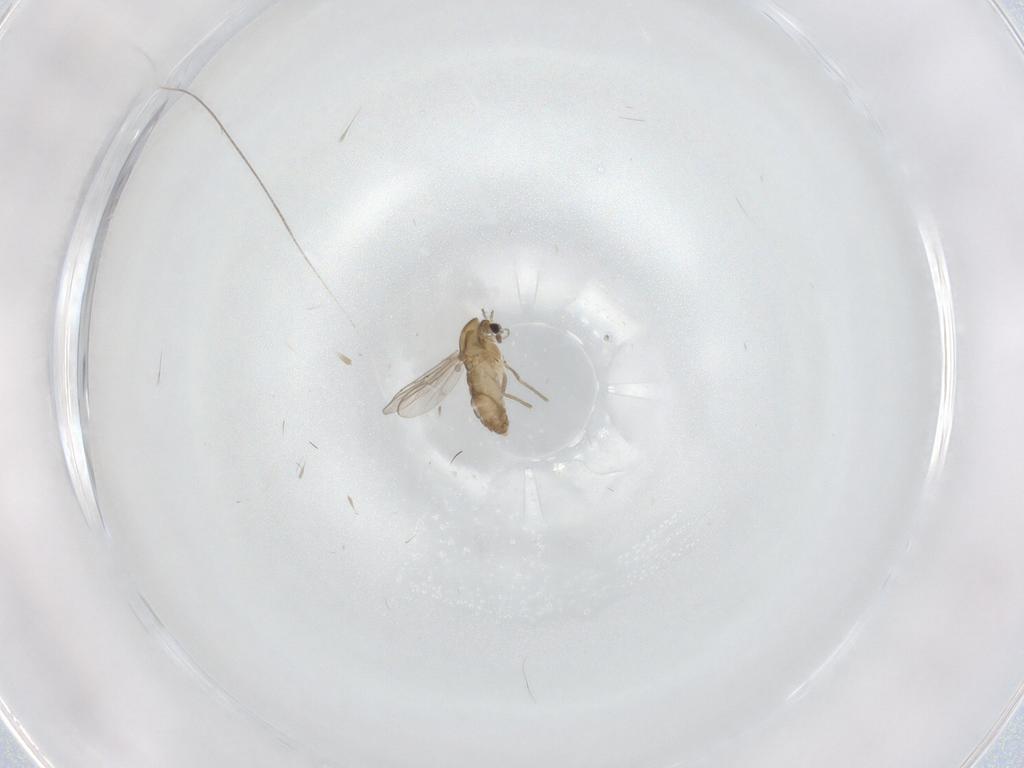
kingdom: Animalia
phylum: Arthropoda
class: Insecta
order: Diptera
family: Chironomidae
